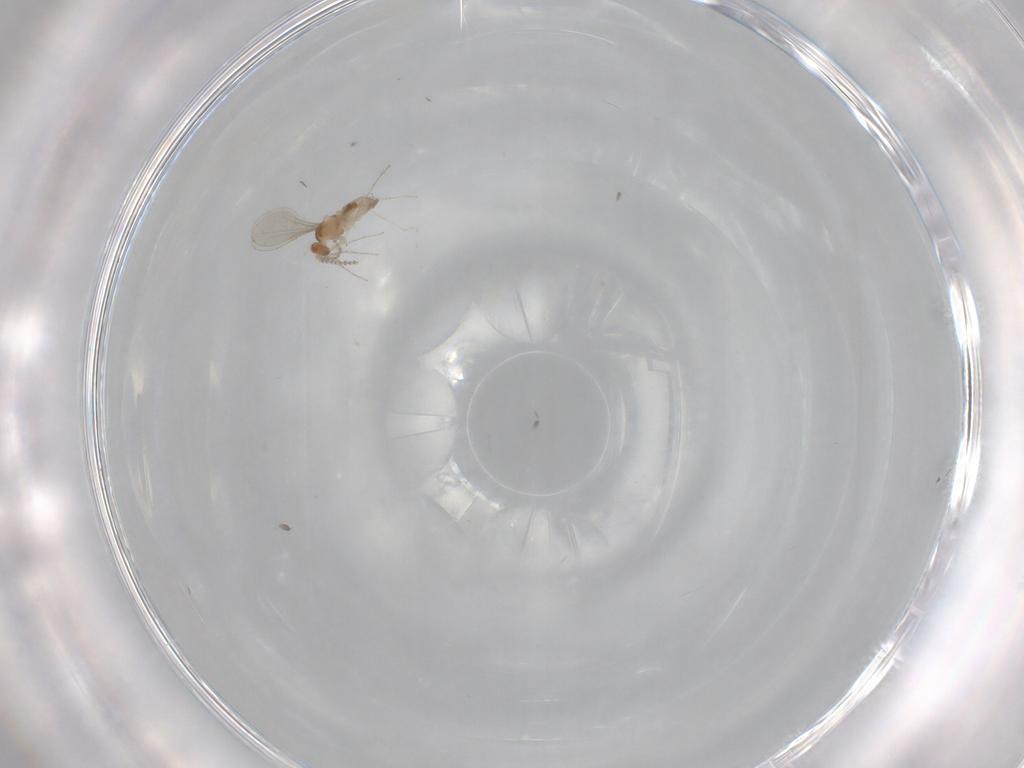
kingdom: Animalia
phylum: Arthropoda
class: Insecta
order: Diptera
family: Cecidomyiidae
